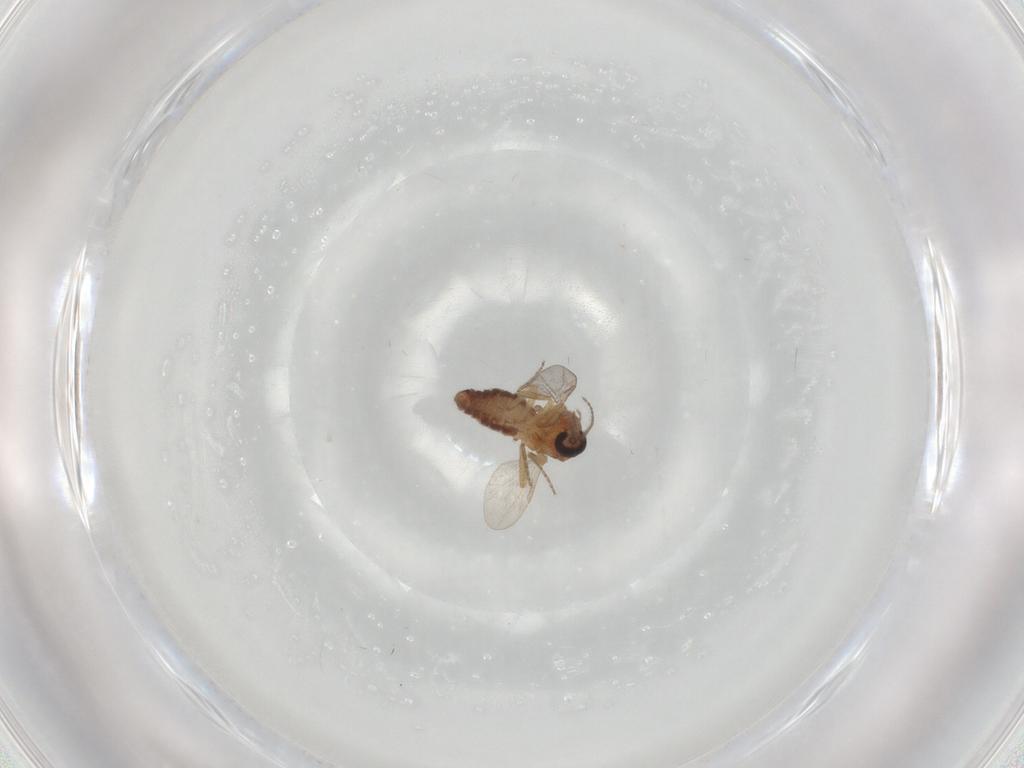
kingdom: Animalia
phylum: Arthropoda
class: Insecta
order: Diptera
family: Ceratopogonidae
